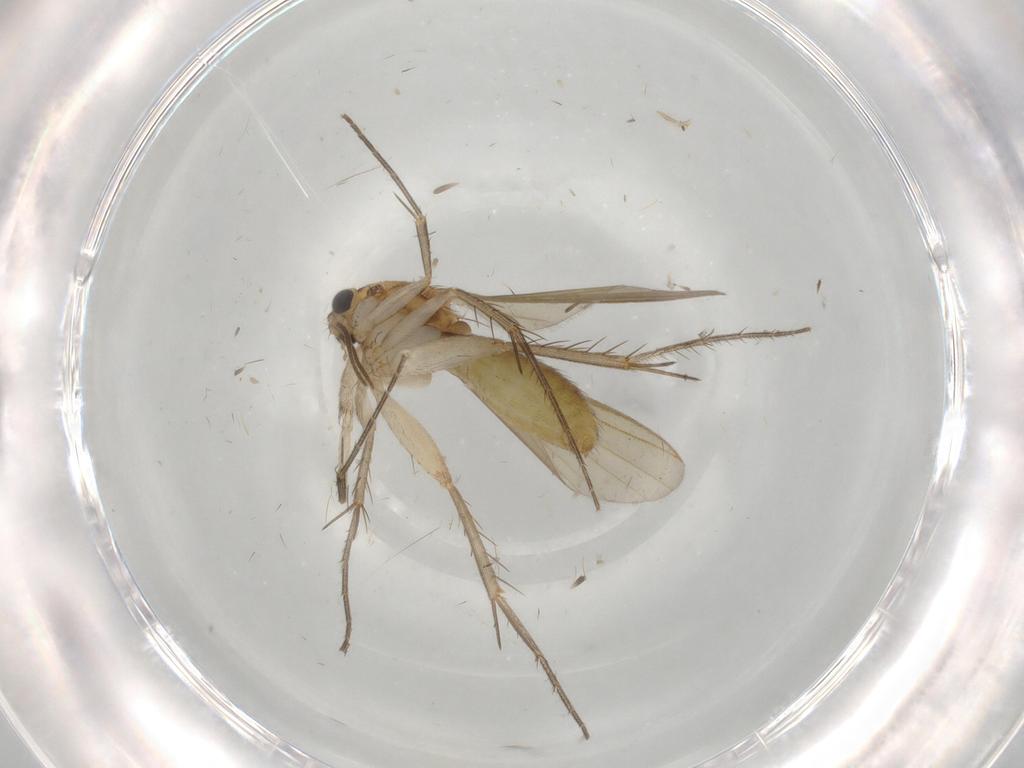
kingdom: Animalia
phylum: Arthropoda
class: Insecta
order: Diptera
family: Mycetophilidae
